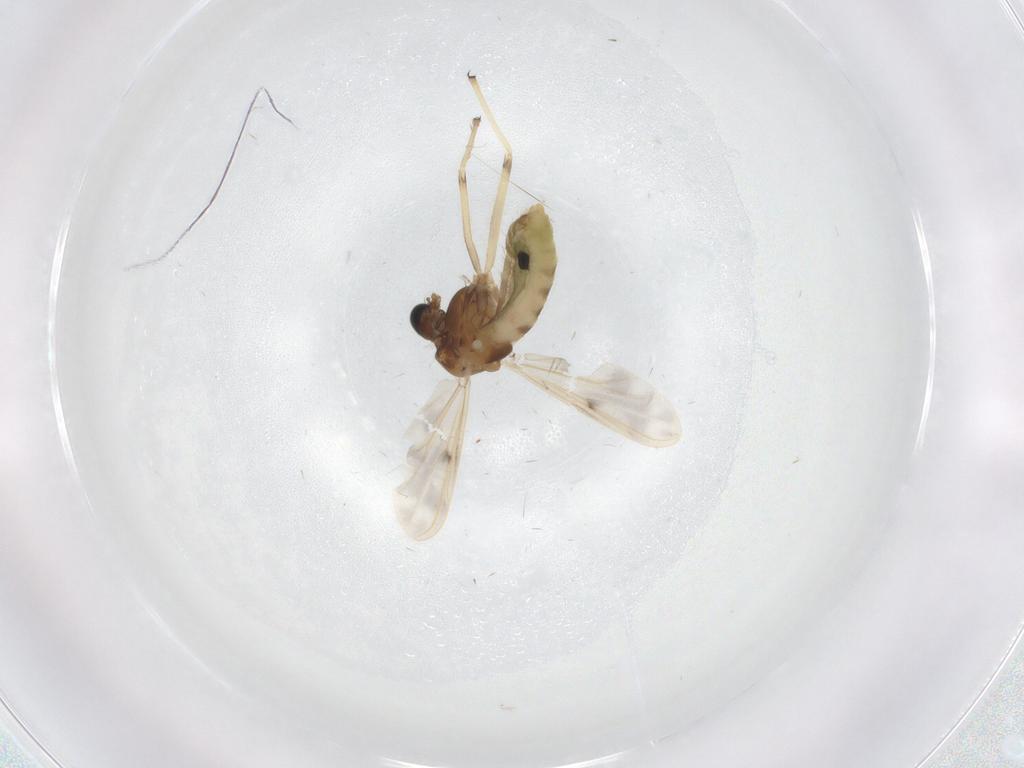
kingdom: Animalia
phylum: Arthropoda
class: Insecta
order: Diptera
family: Chironomidae
